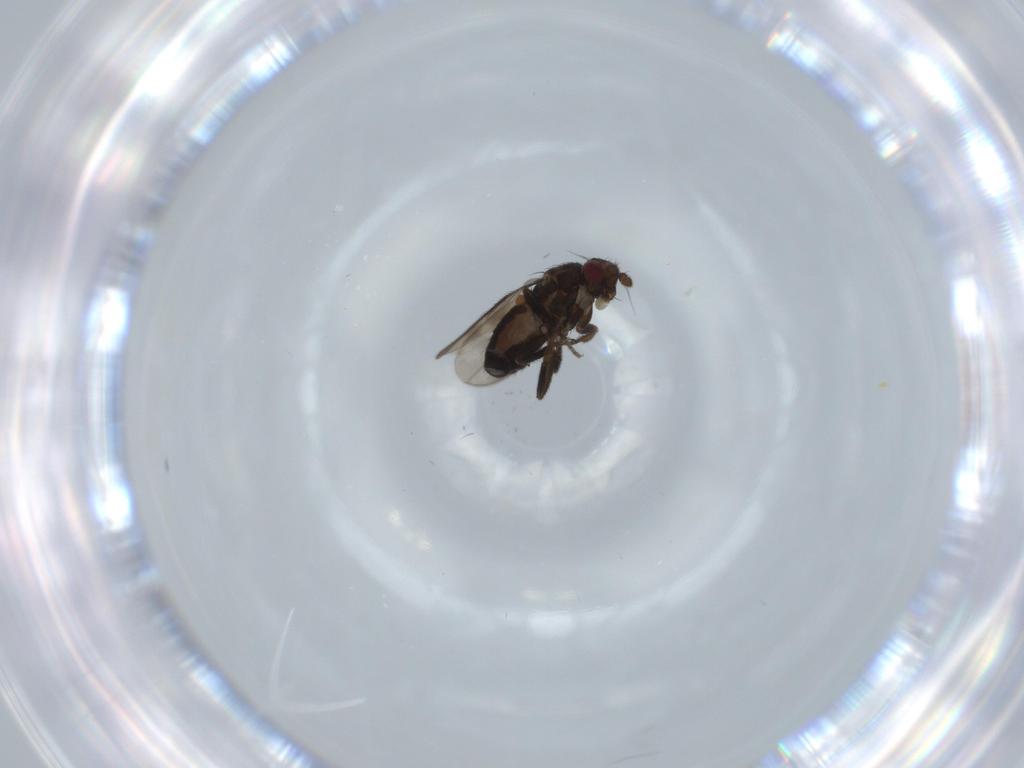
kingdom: Animalia
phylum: Arthropoda
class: Insecta
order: Diptera
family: Sphaeroceridae
